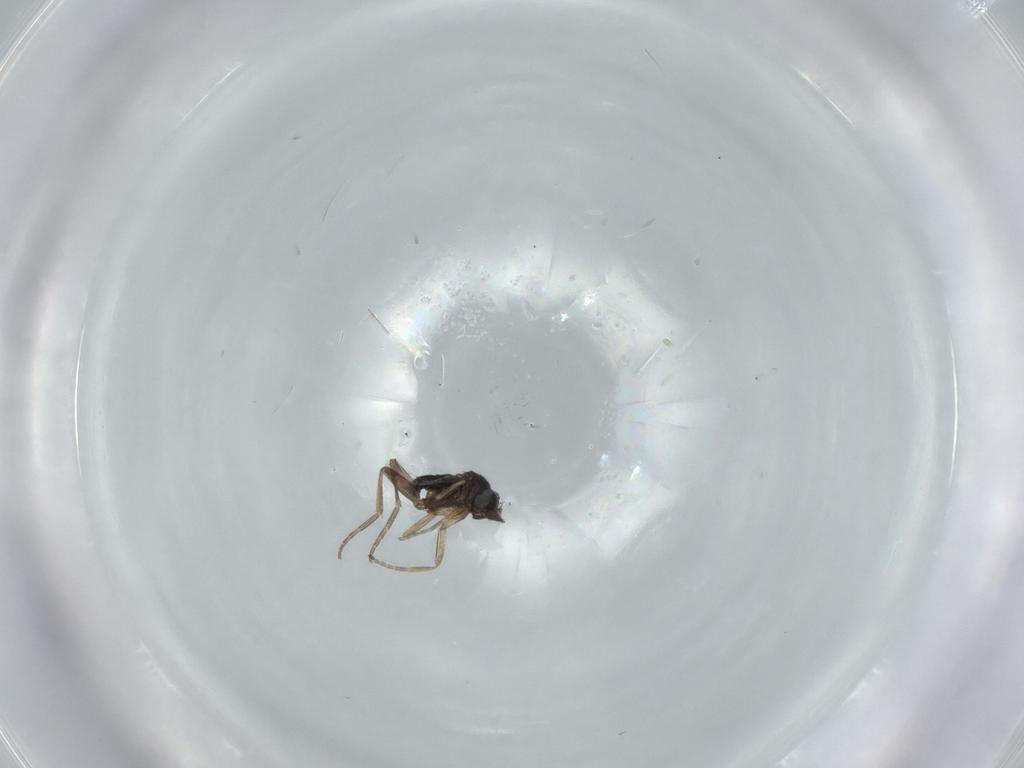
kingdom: Animalia
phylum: Arthropoda
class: Insecta
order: Diptera
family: Phoridae
